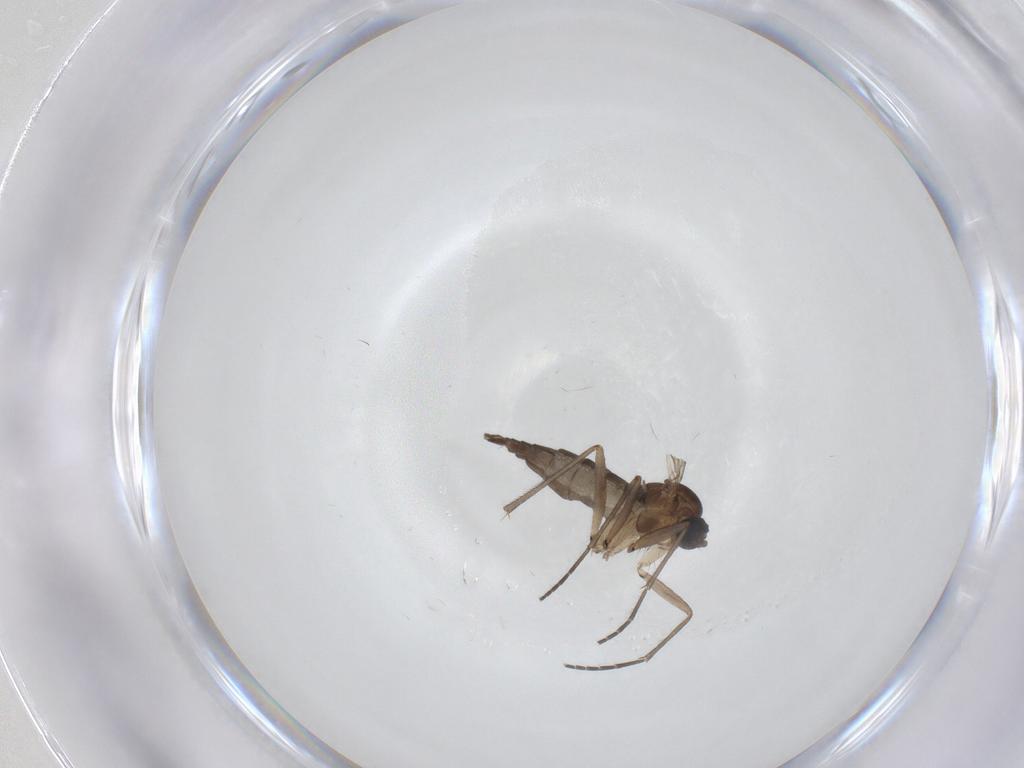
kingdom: Animalia
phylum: Arthropoda
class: Insecta
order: Diptera
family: Sciaridae
